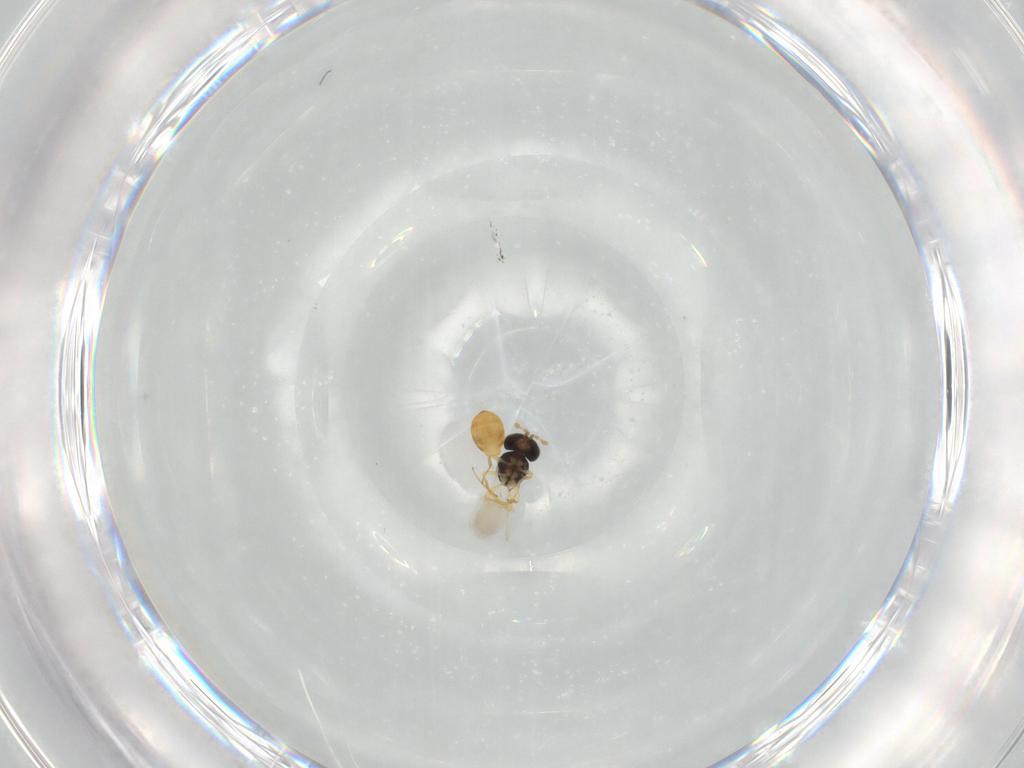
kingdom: Animalia
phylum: Arthropoda
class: Insecta
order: Hymenoptera
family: Scelionidae
